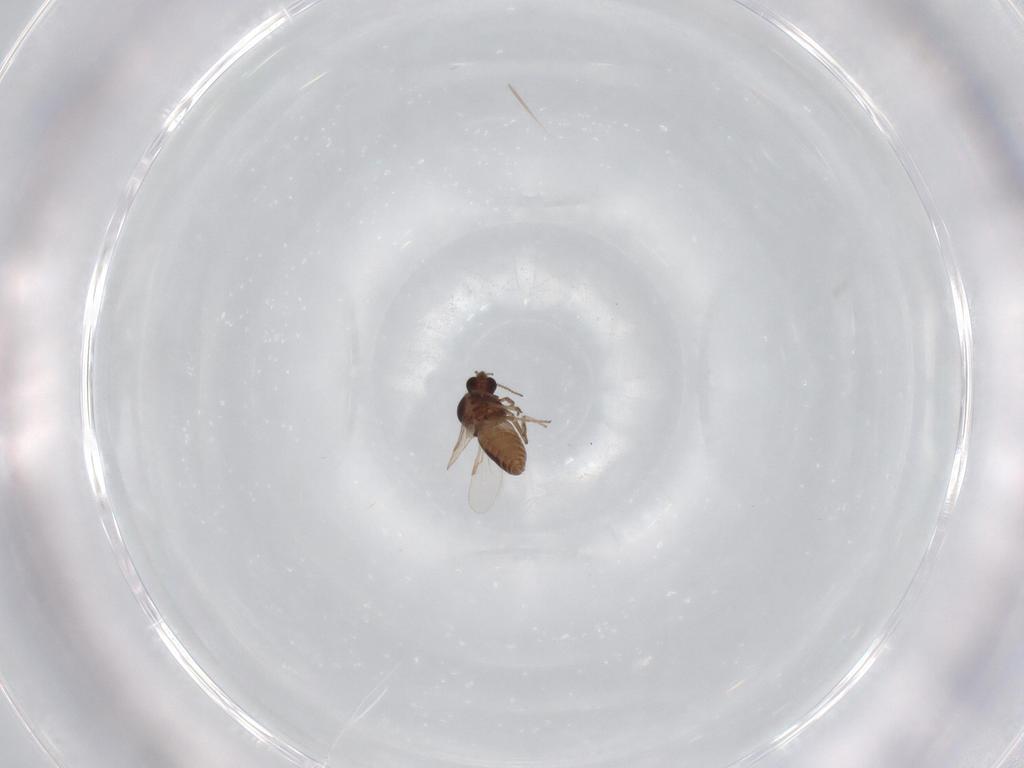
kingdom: Animalia
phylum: Arthropoda
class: Insecta
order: Diptera
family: Ceratopogonidae
